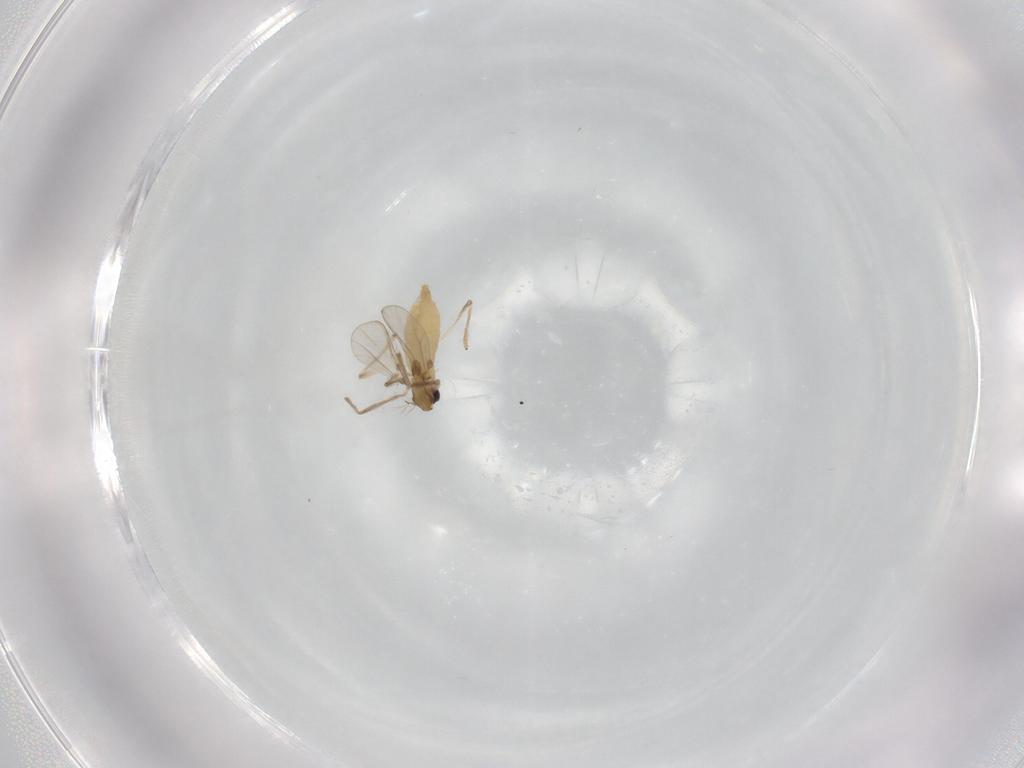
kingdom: Animalia
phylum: Arthropoda
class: Insecta
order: Diptera
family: Chironomidae
